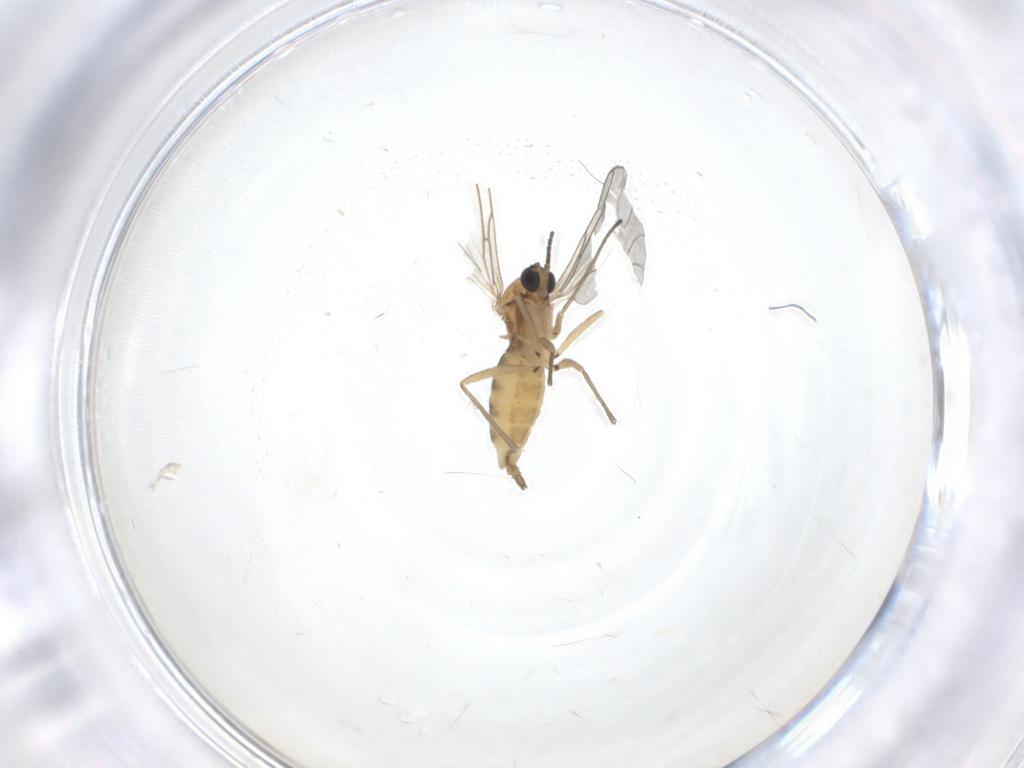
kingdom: Animalia
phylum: Arthropoda
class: Insecta
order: Diptera
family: Sciaridae
